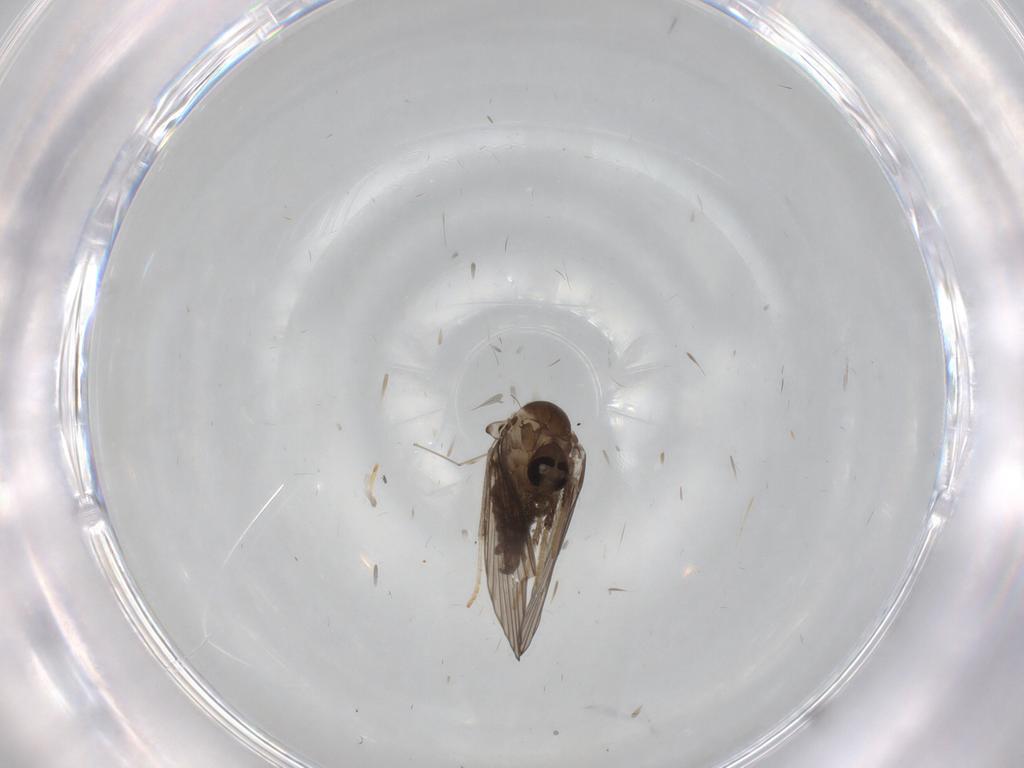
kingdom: Animalia
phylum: Arthropoda
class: Insecta
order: Diptera
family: Psychodidae
